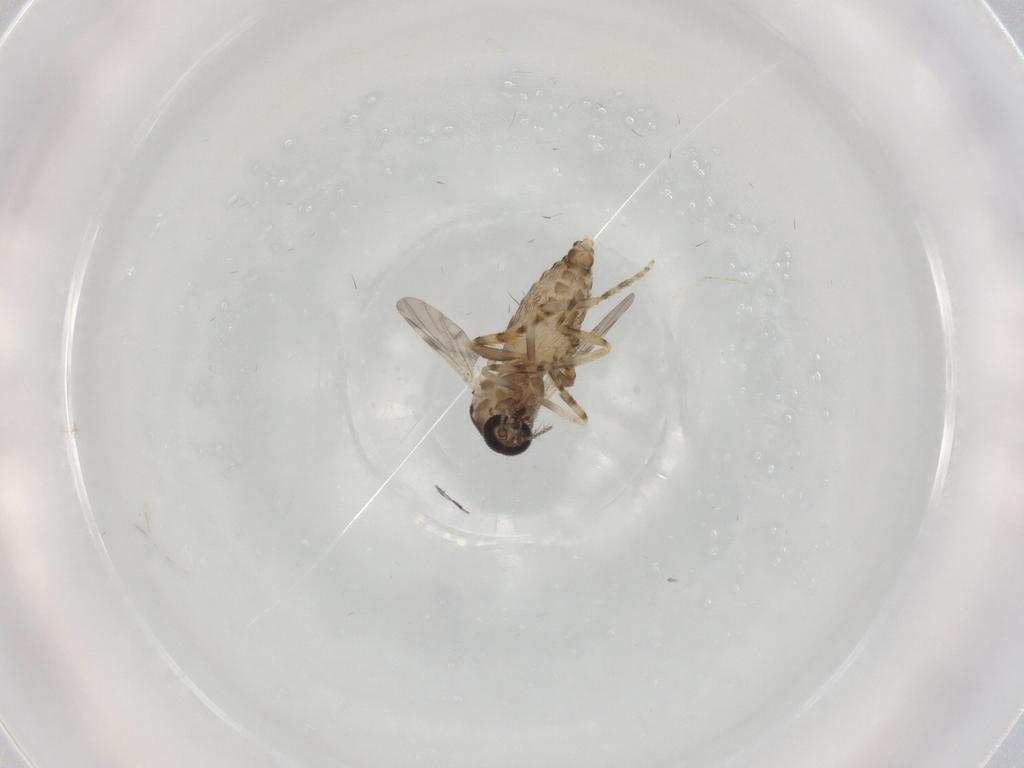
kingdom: Animalia
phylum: Arthropoda
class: Insecta
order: Diptera
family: Ceratopogonidae
